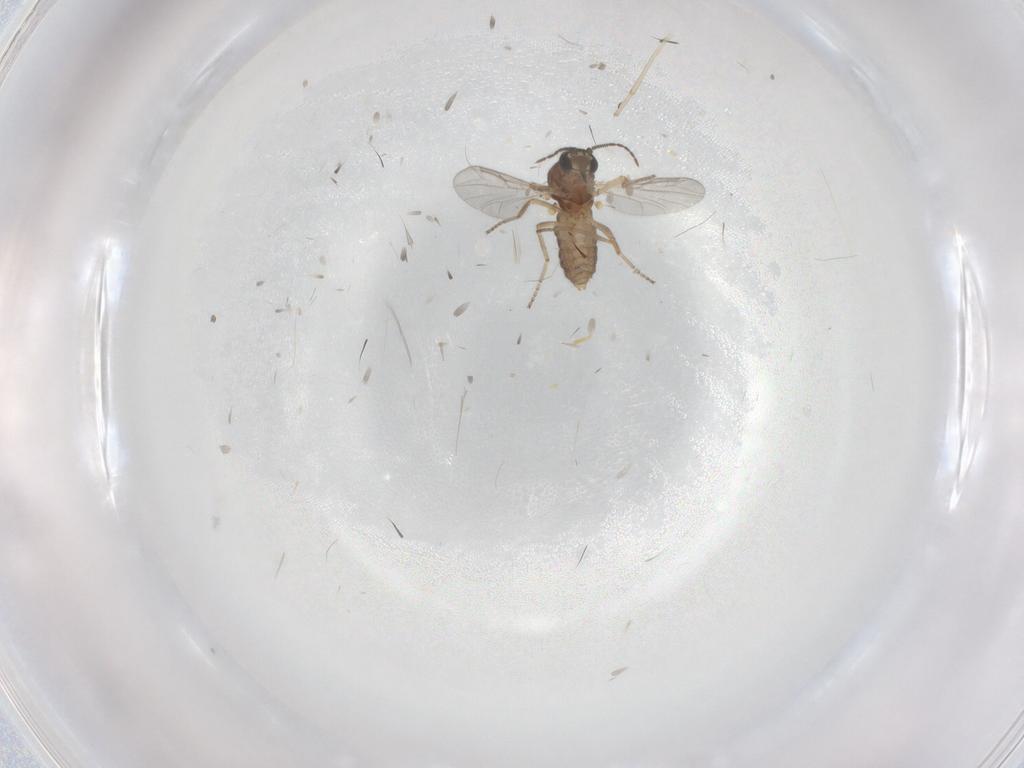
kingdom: Animalia
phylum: Arthropoda
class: Insecta
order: Diptera
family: Ceratopogonidae
